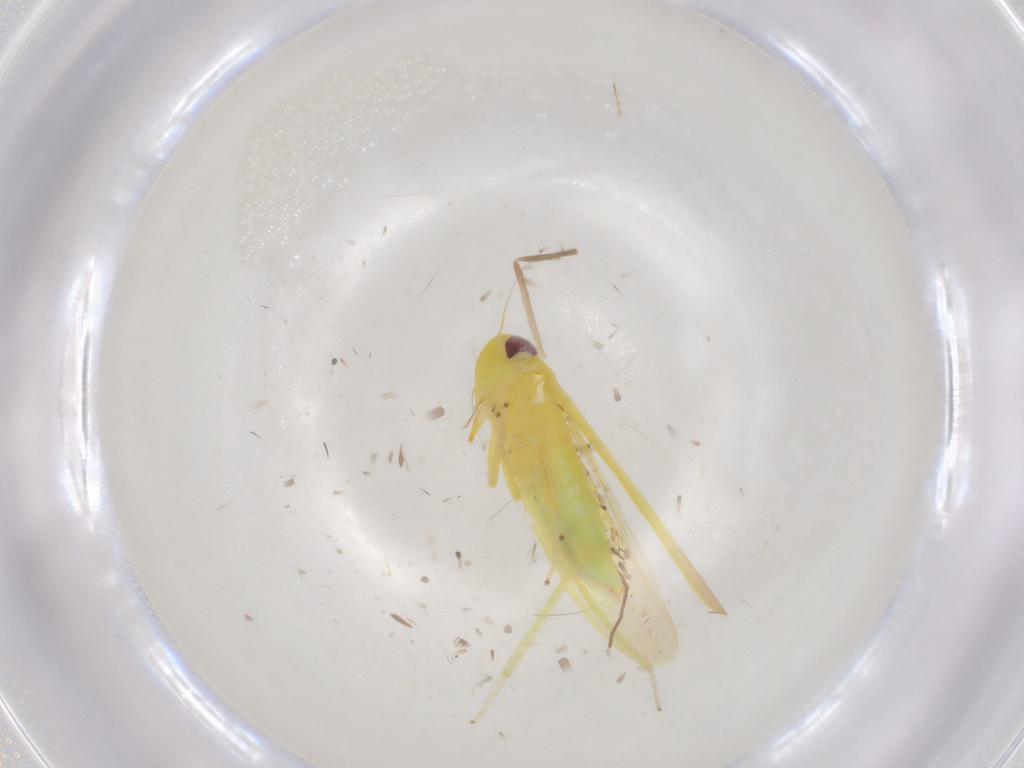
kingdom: Animalia
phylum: Arthropoda
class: Insecta
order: Hemiptera
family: Cicadellidae
